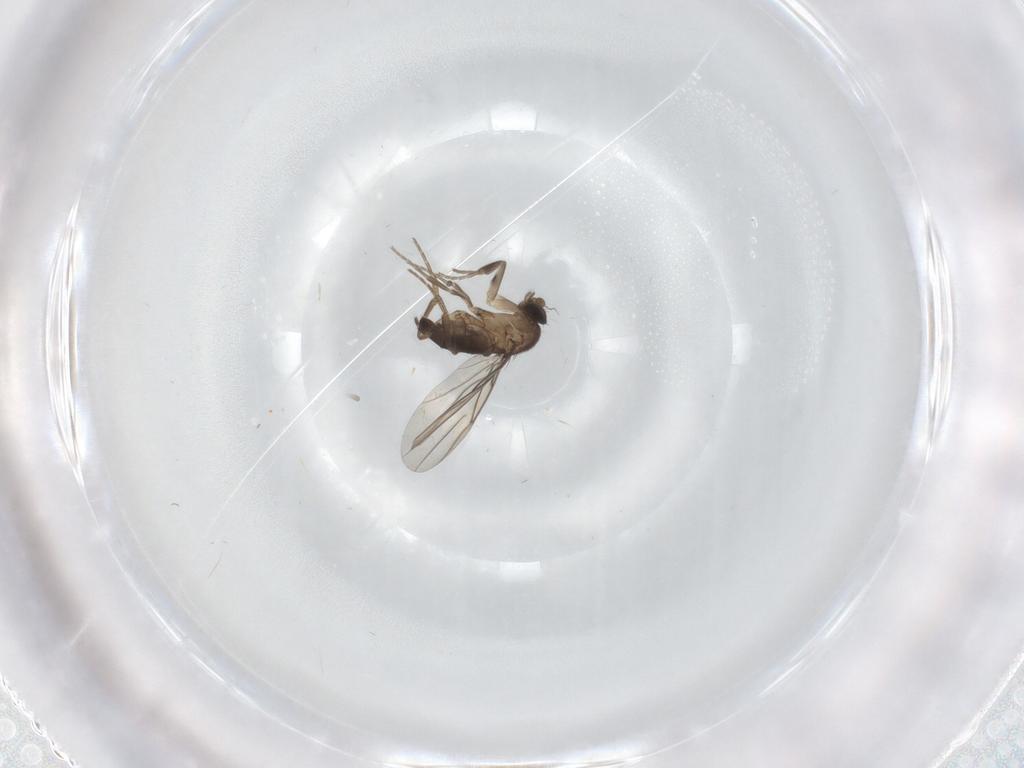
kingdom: Animalia
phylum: Arthropoda
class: Insecta
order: Diptera
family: Phoridae
